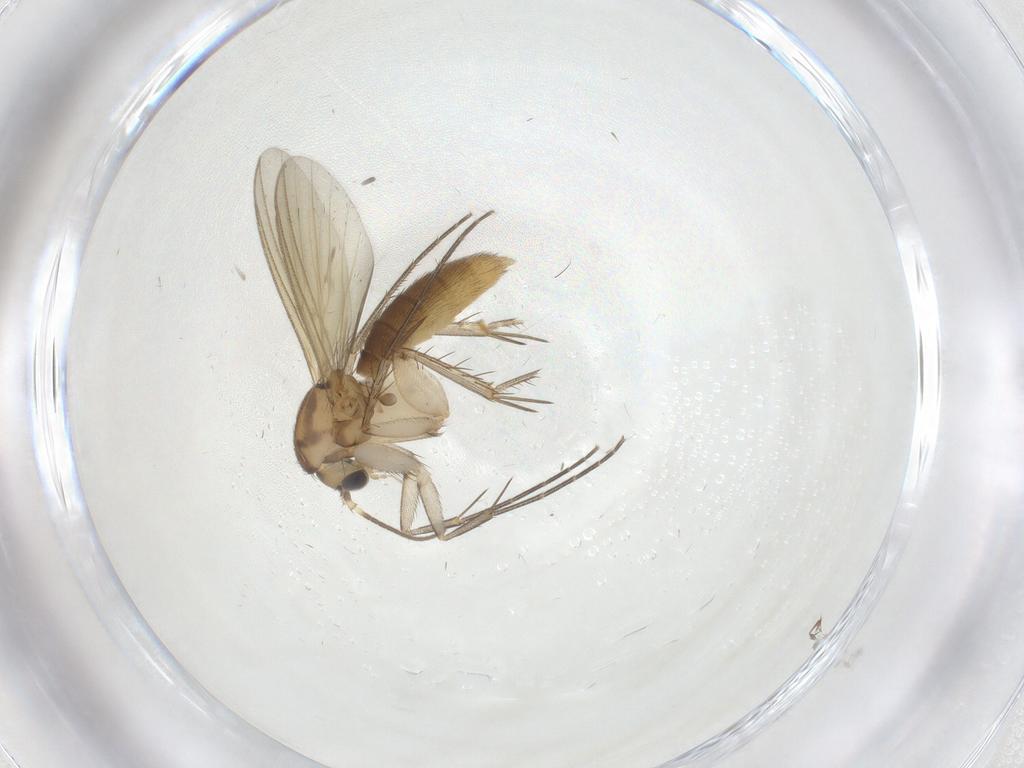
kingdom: Animalia
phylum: Arthropoda
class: Insecta
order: Diptera
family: Mycetophilidae
